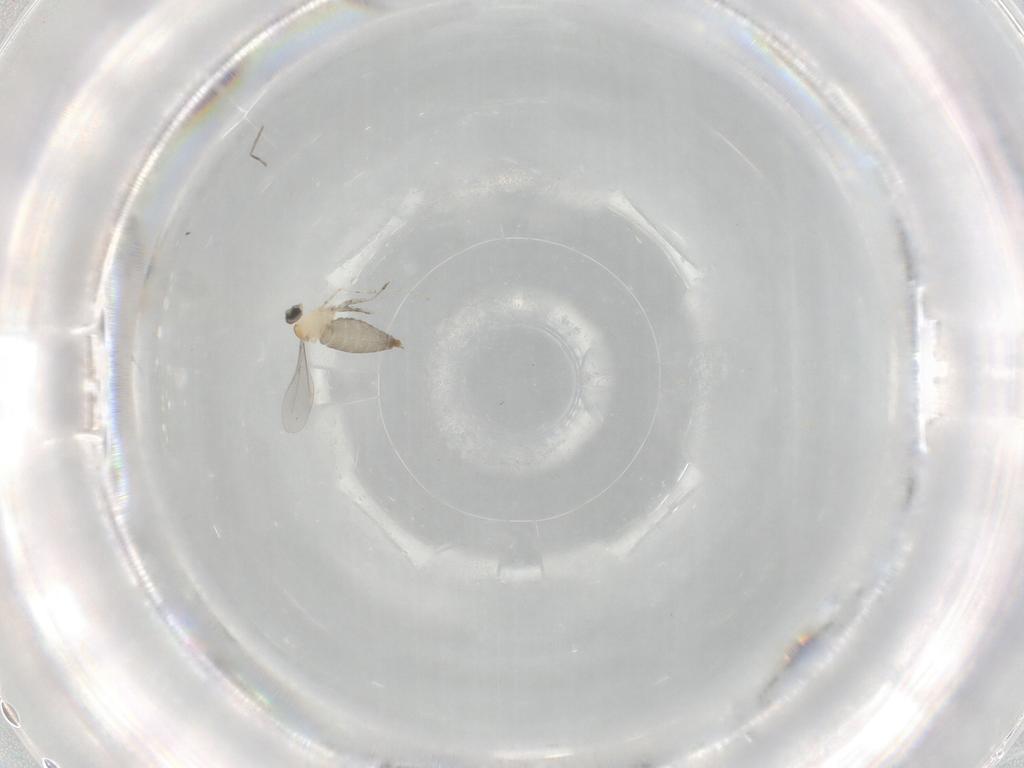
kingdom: Animalia
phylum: Arthropoda
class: Insecta
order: Diptera
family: Cecidomyiidae
